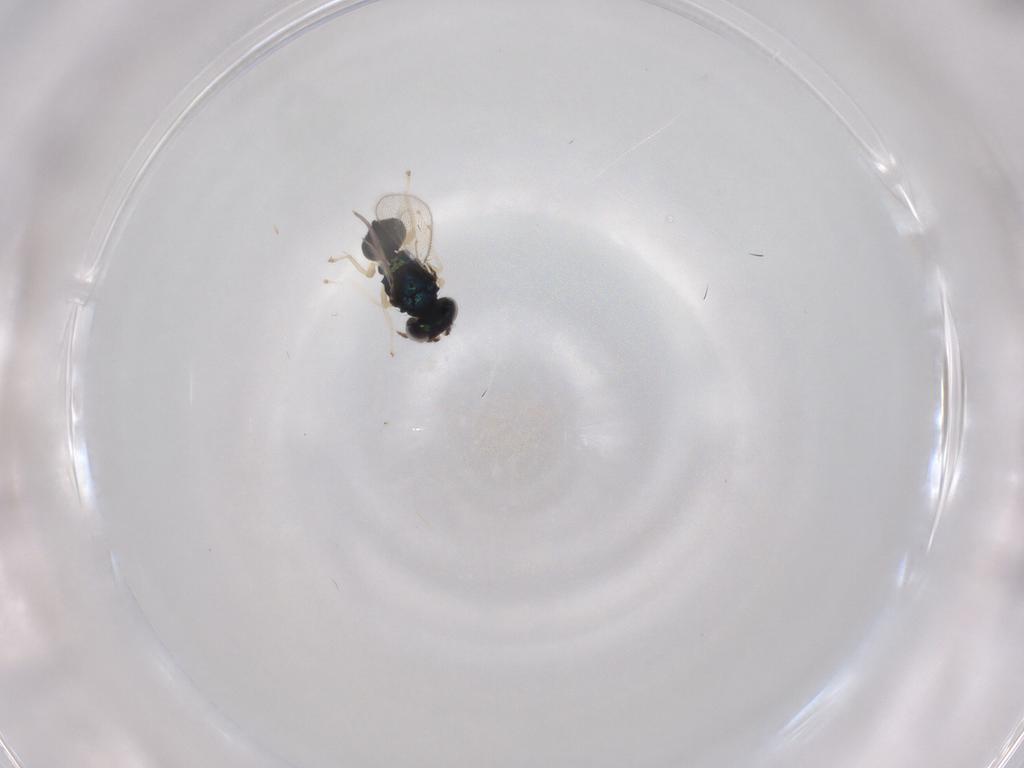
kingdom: Animalia
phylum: Arthropoda
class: Insecta
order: Hymenoptera
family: Eulophidae
